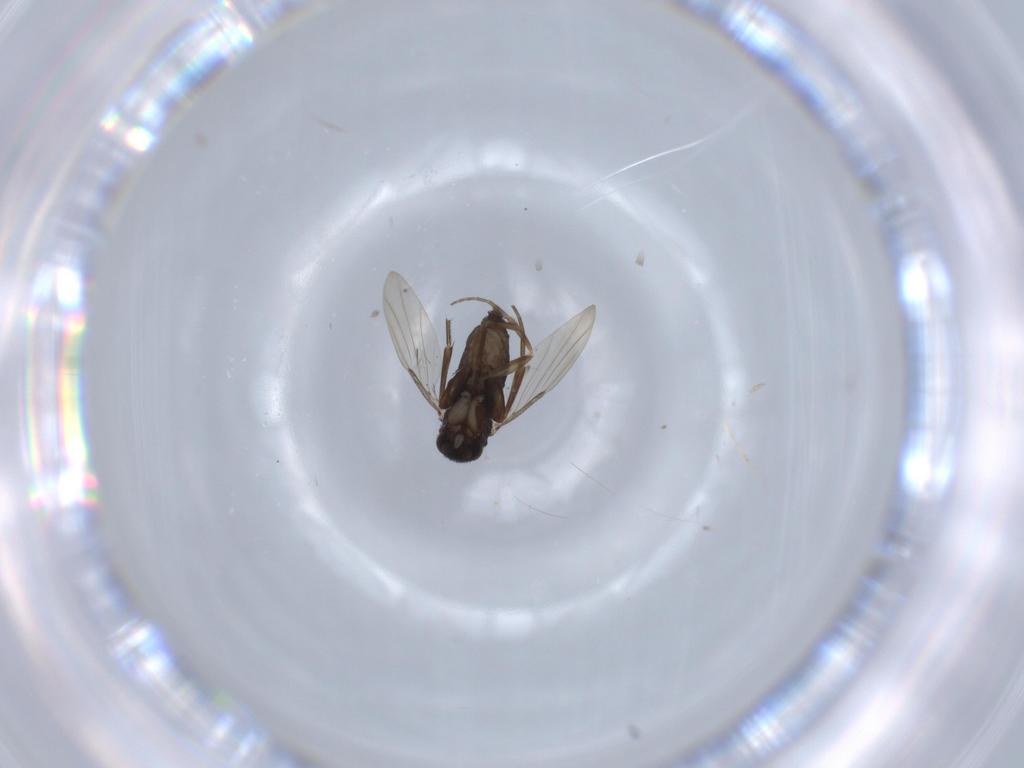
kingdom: Animalia
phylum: Arthropoda
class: Insecta
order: Diptera
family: Phoridae
